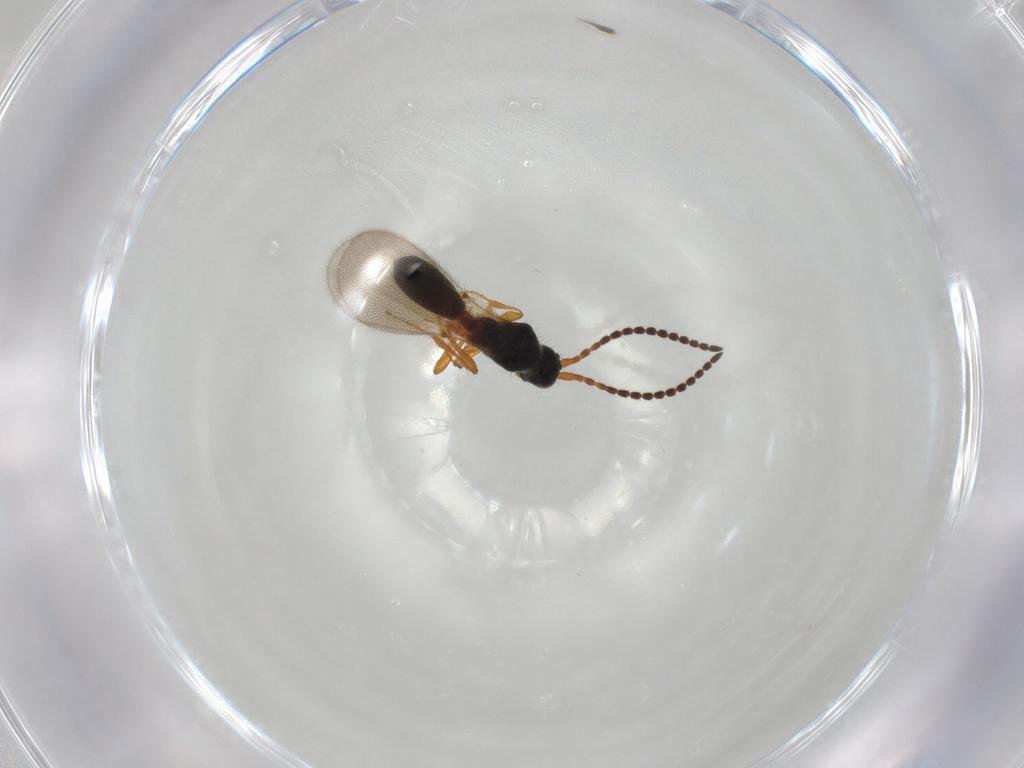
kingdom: Animalia
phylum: Arthropoda
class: Insecta
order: Hymenoptera
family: Diapriidae
